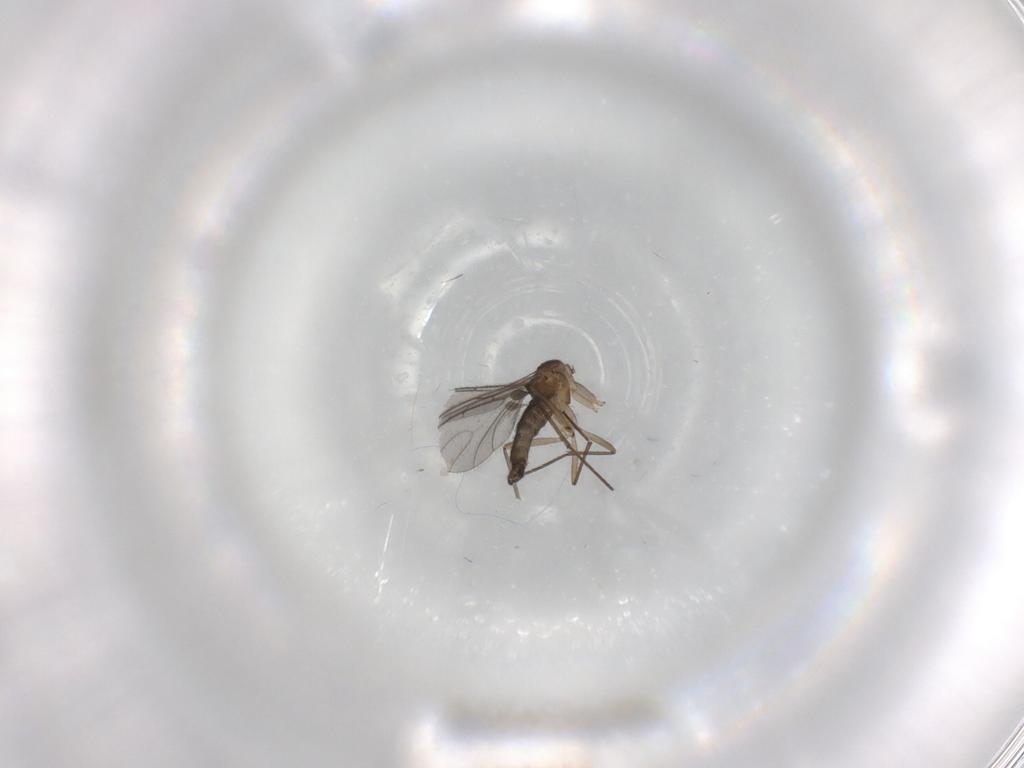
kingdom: Animalia
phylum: Arthropoda
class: Insecta
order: Diptera
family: Sciaridae
